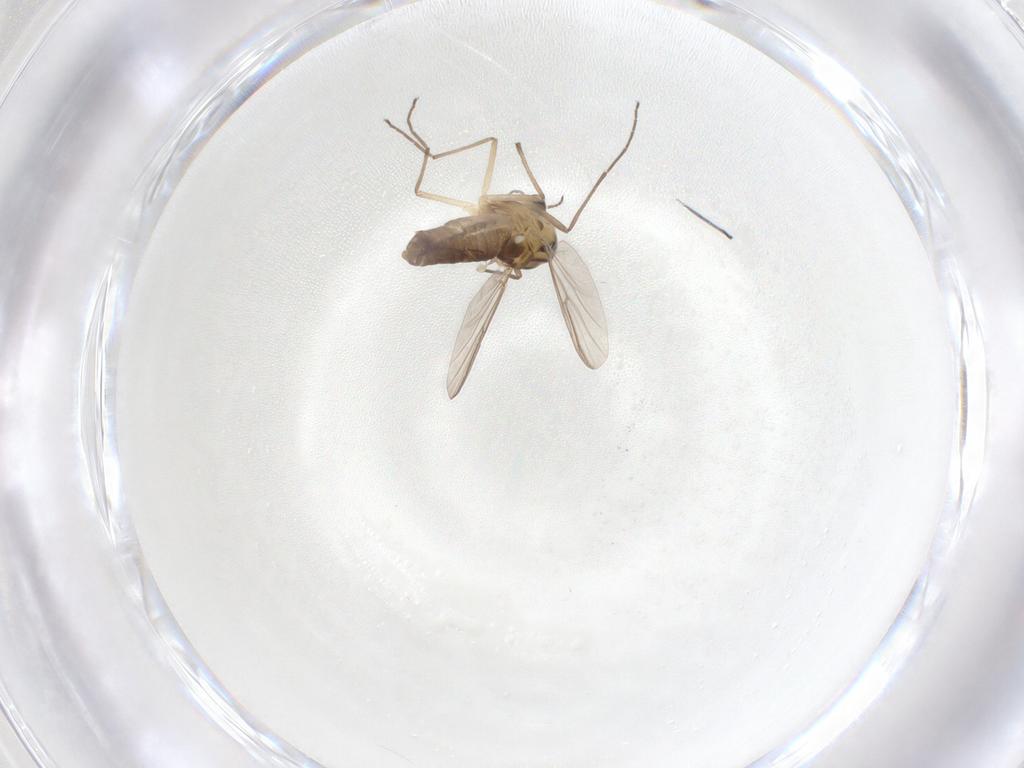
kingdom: Animalia
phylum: Arthropoda
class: Insecta
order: Diptera
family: Chironomidae
